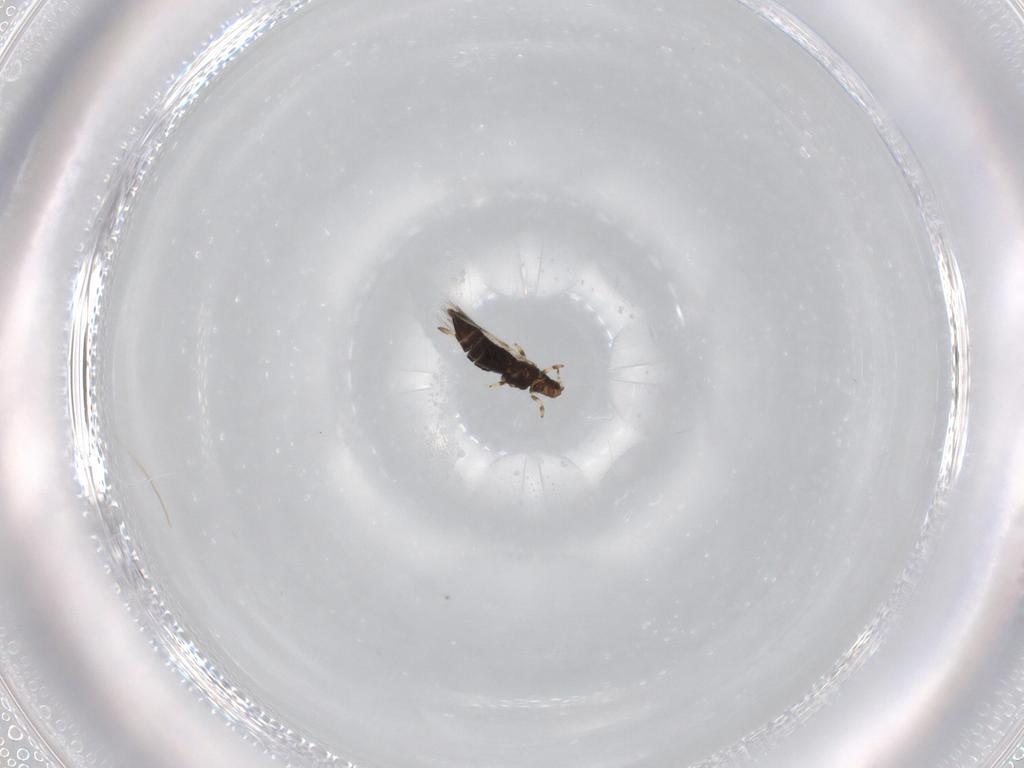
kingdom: Animalia
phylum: Arthropoda
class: Insecta
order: Thysanoptera
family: Thripidae
